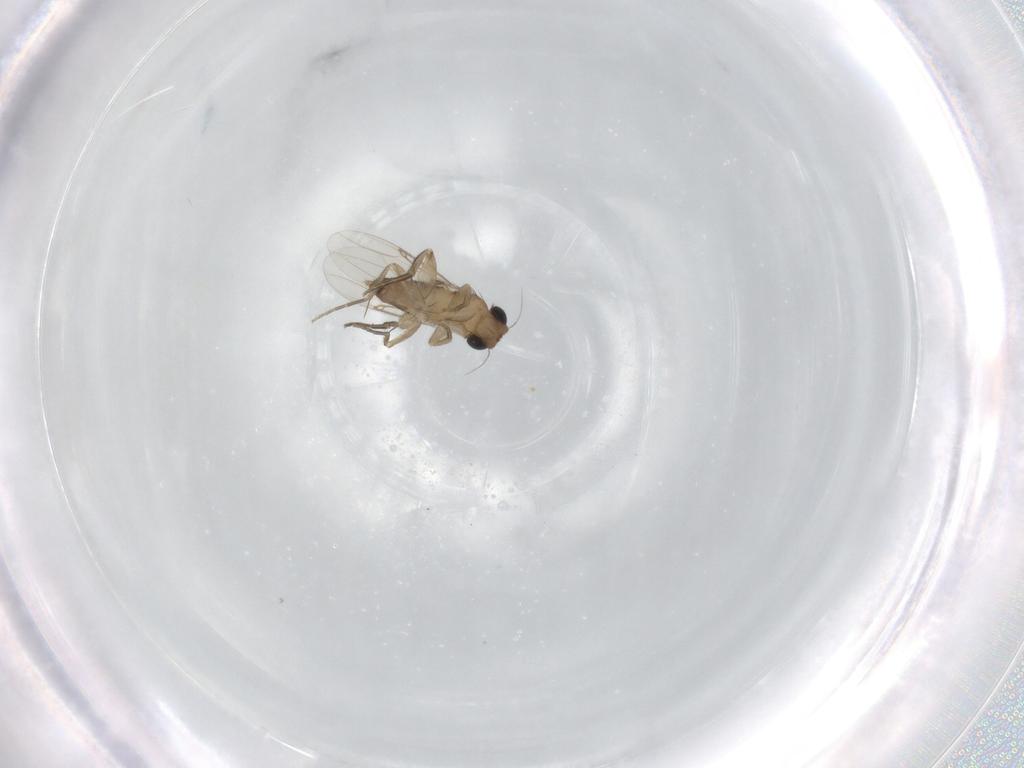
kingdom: Animalia
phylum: Arthropoda
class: Insecta
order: Diptera
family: Phoridae
